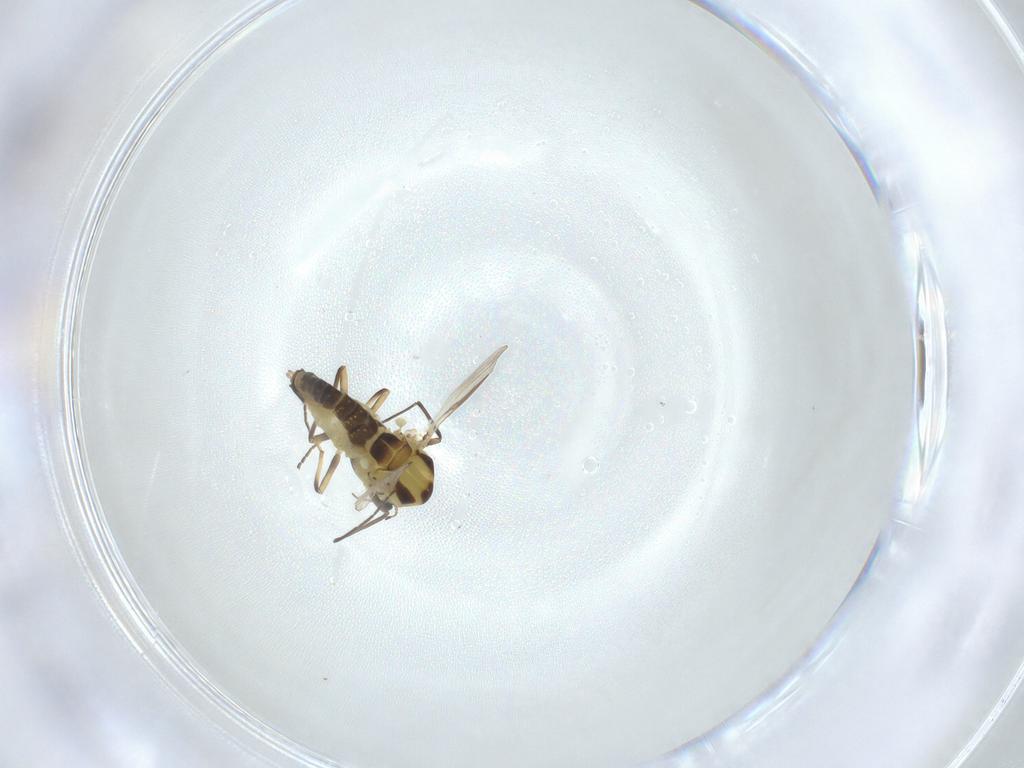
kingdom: Animalia
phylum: Arthropoda
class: Insecta
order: Diptera
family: Chironomidae
